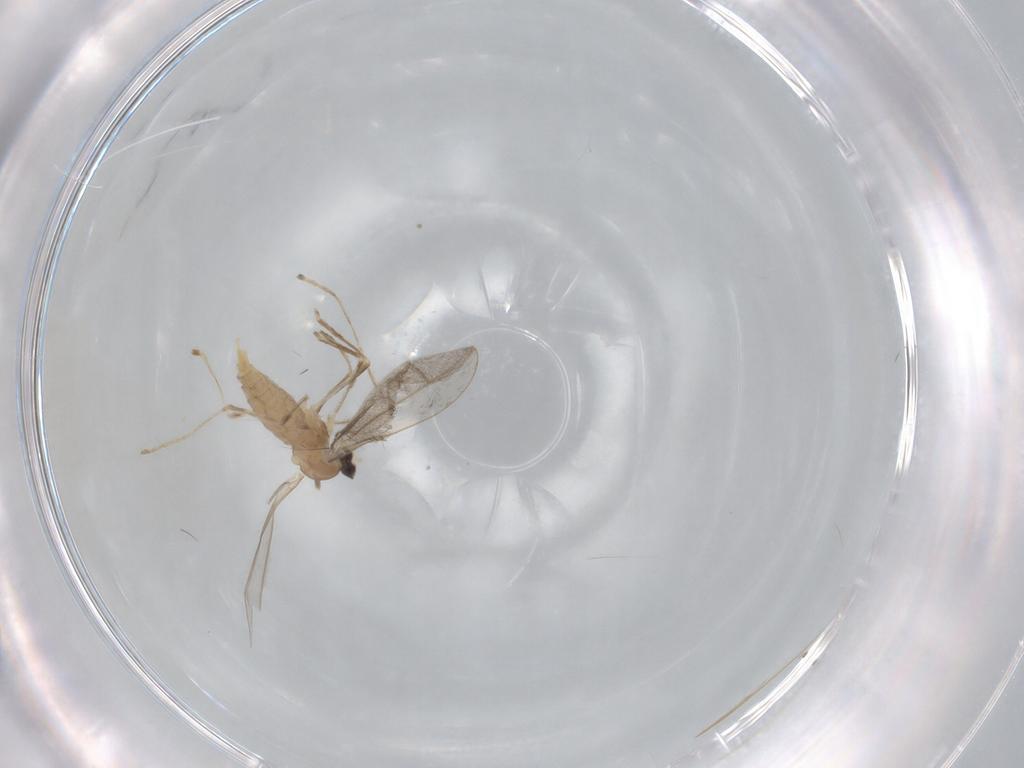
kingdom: Animalia
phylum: Arthropoda
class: Insecta
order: Diptera
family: Cecidomyiidae
